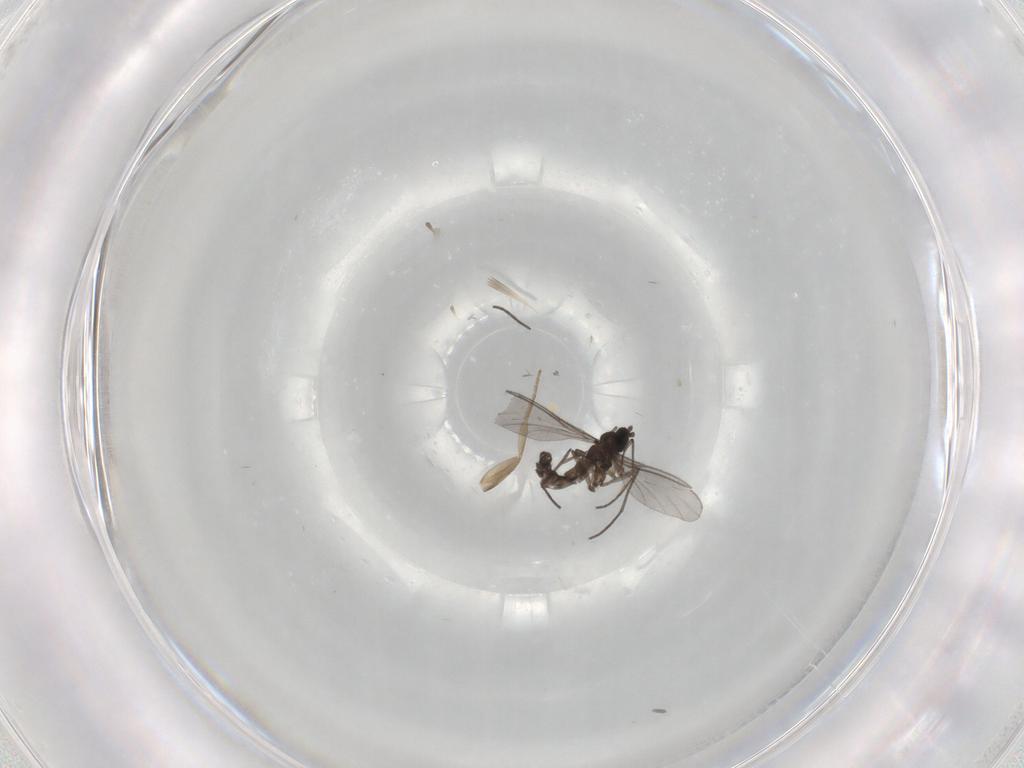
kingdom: Animalia
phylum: Arthropoda
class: Insecta
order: Diptera
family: Phoridae
